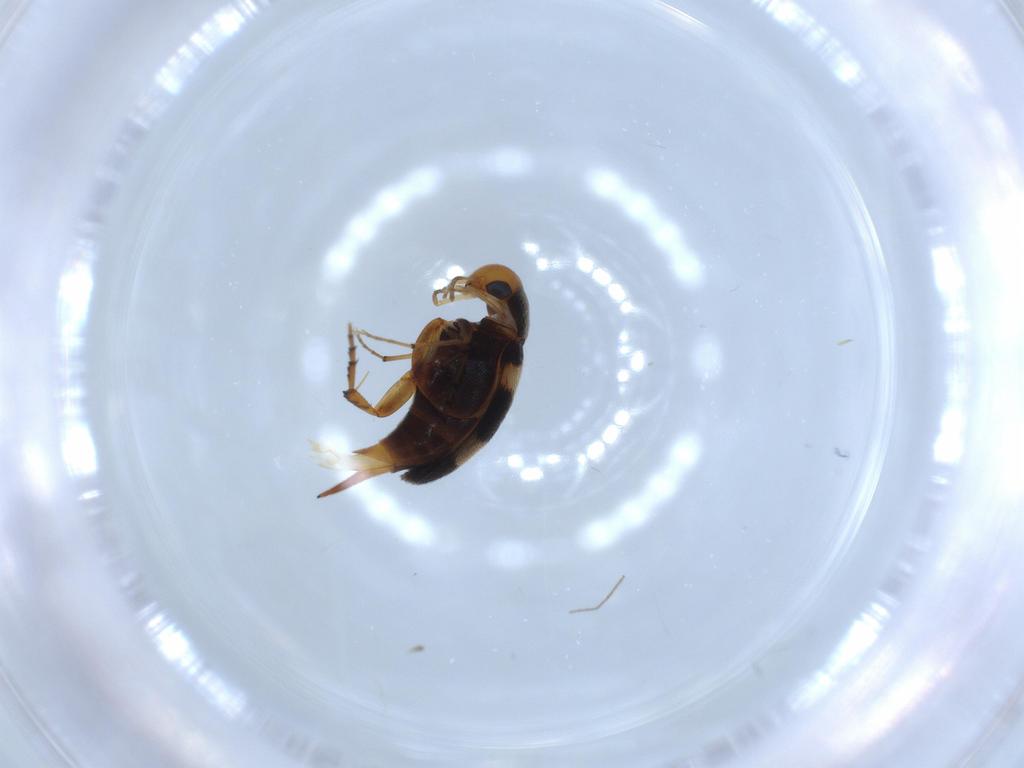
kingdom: Animalia
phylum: Arthropoda
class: Insecta
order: Coleoptera
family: Mordellidae
